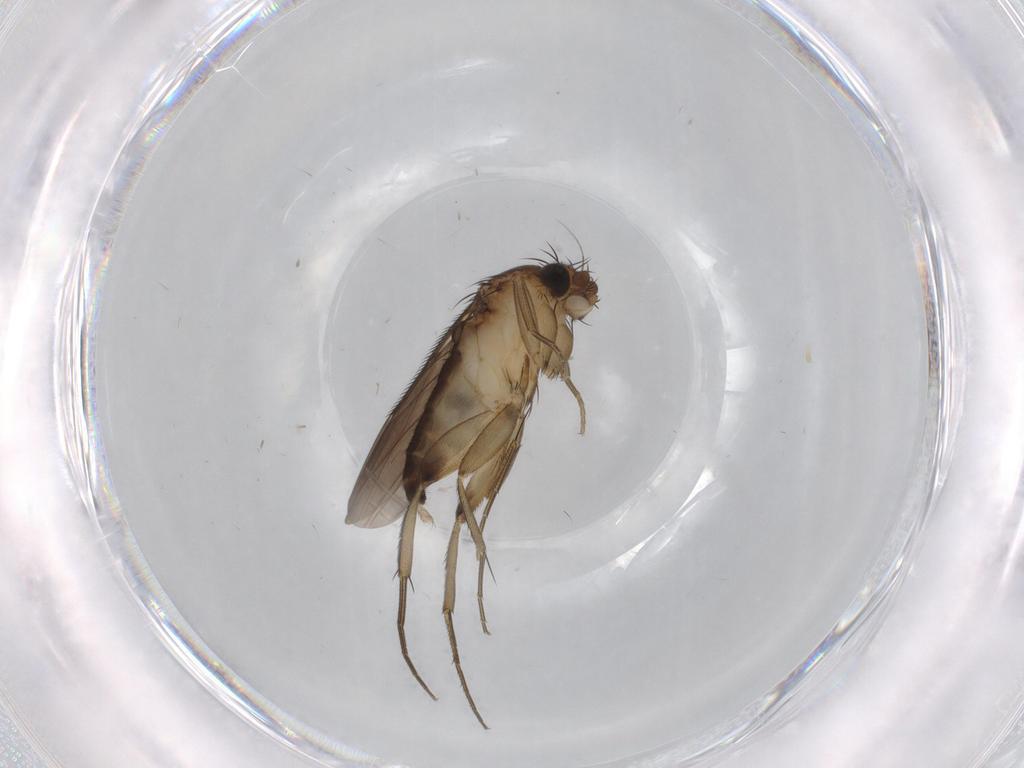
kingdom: Animalia
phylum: Arthropoda
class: Insecta
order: Diptera
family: Phoridae
